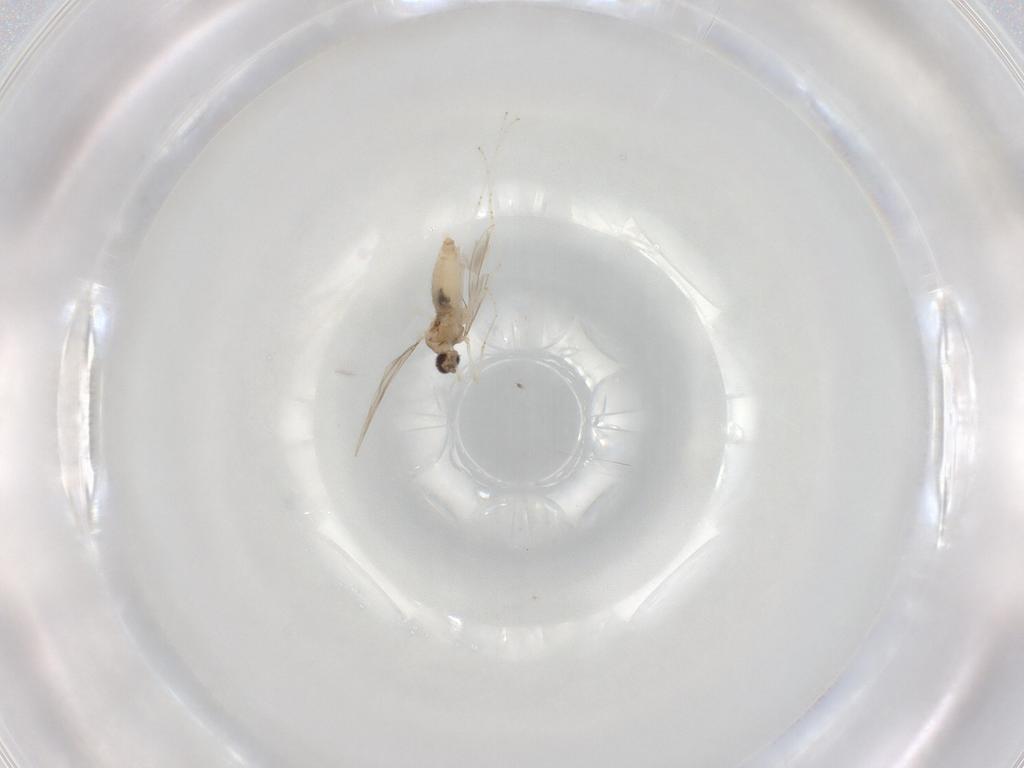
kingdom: Animalia
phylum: Arthropoda
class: Insecta
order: Diptera
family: Cecidomyiidae
